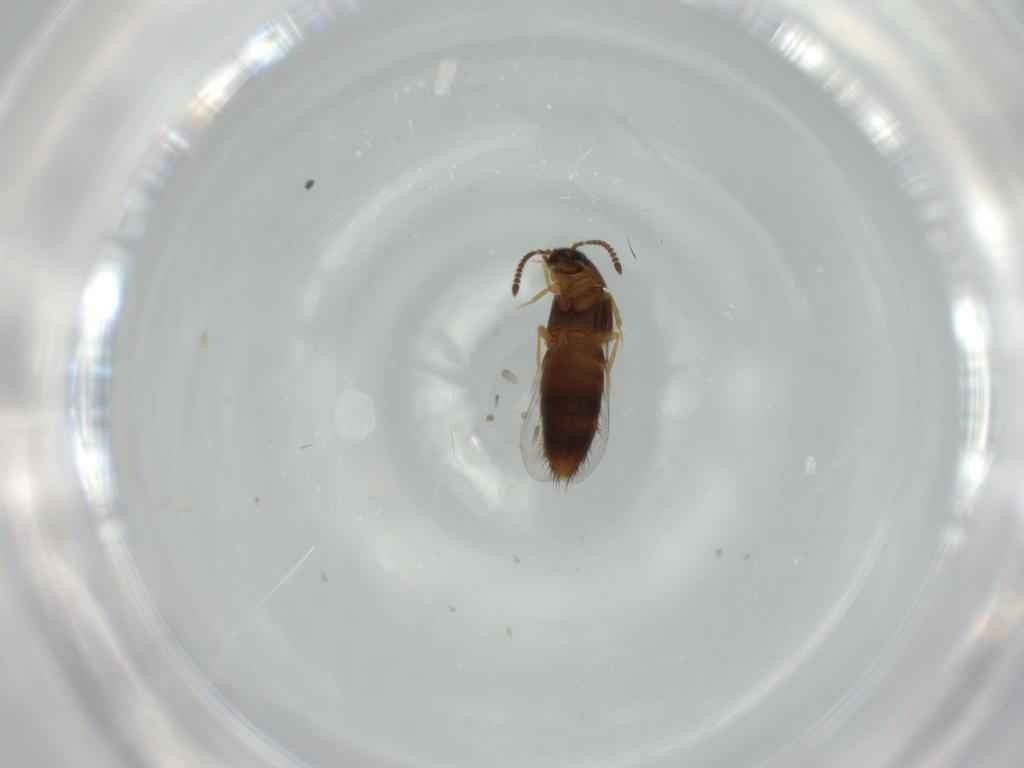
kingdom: Animalia
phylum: Arthropoda
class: Insecta
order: Coleoptera
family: Staphylinidae
